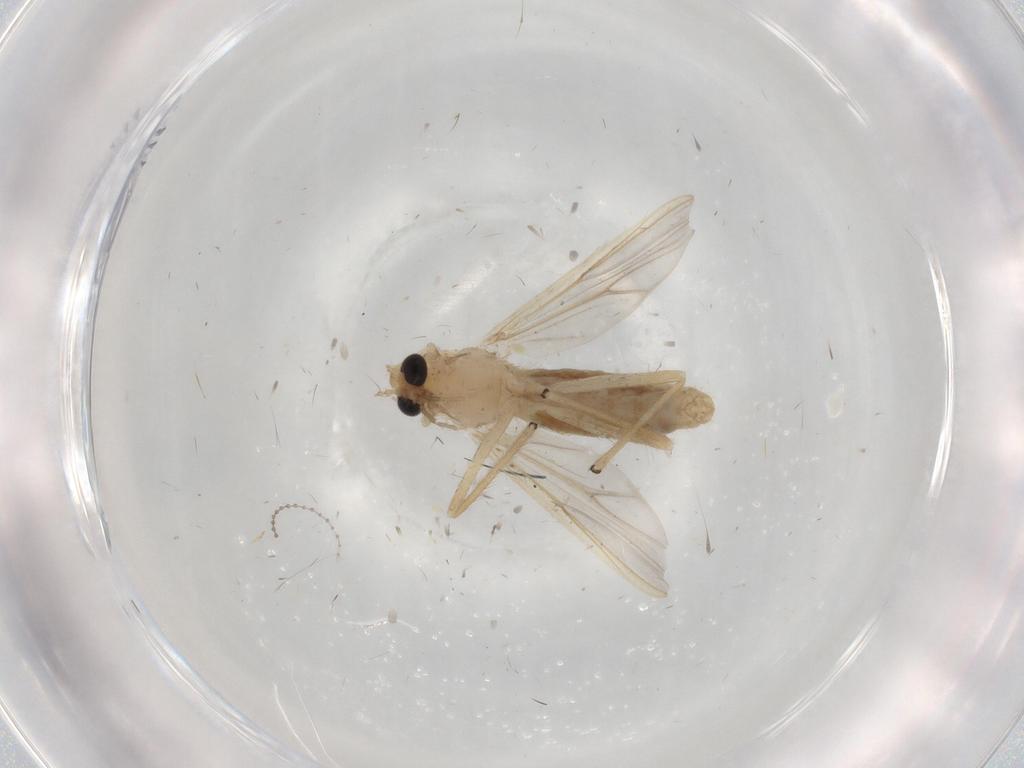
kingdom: Animalia
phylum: Arthropoda
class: Insecta
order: Diptera
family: Chironomidae
